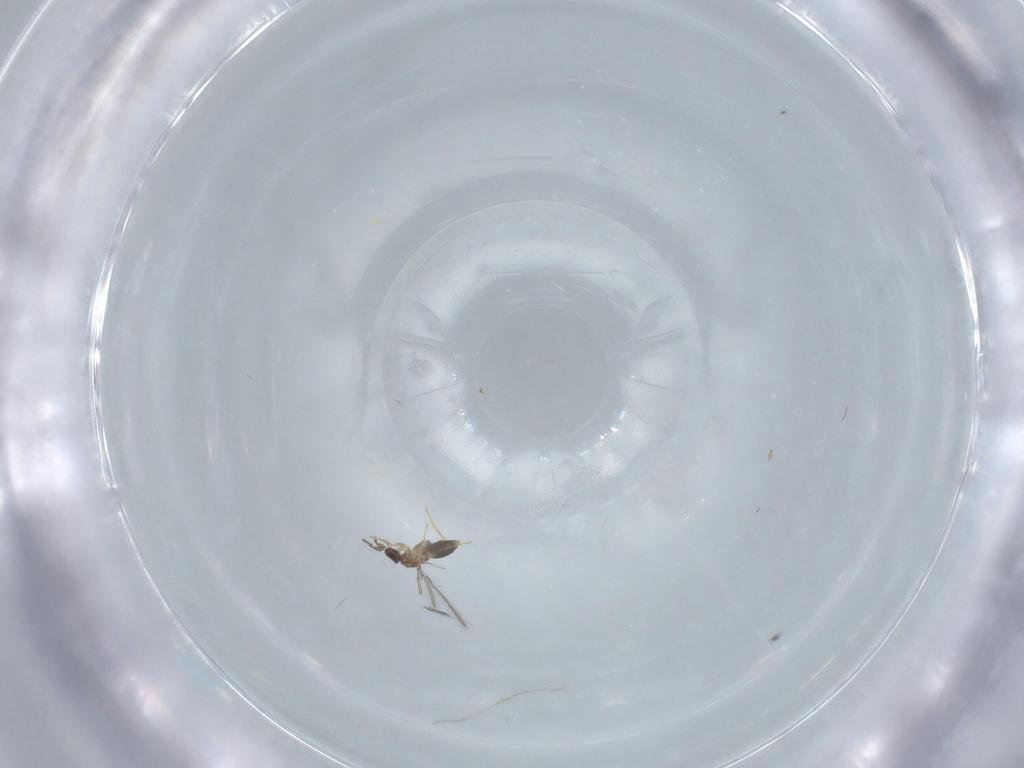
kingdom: Animalia
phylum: Arthropoda
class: Insecta
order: Hymenoptera
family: Mymaridae
